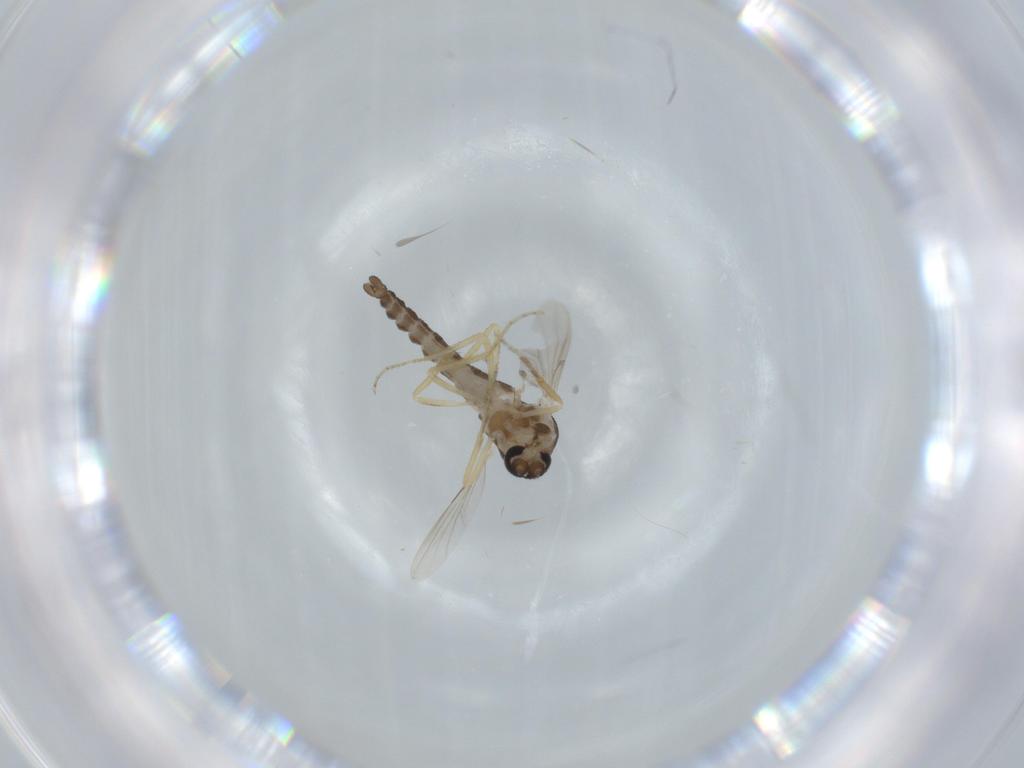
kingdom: Animalia
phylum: Arthropoda
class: Insecta
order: Diptera
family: Ceratopogonidae
